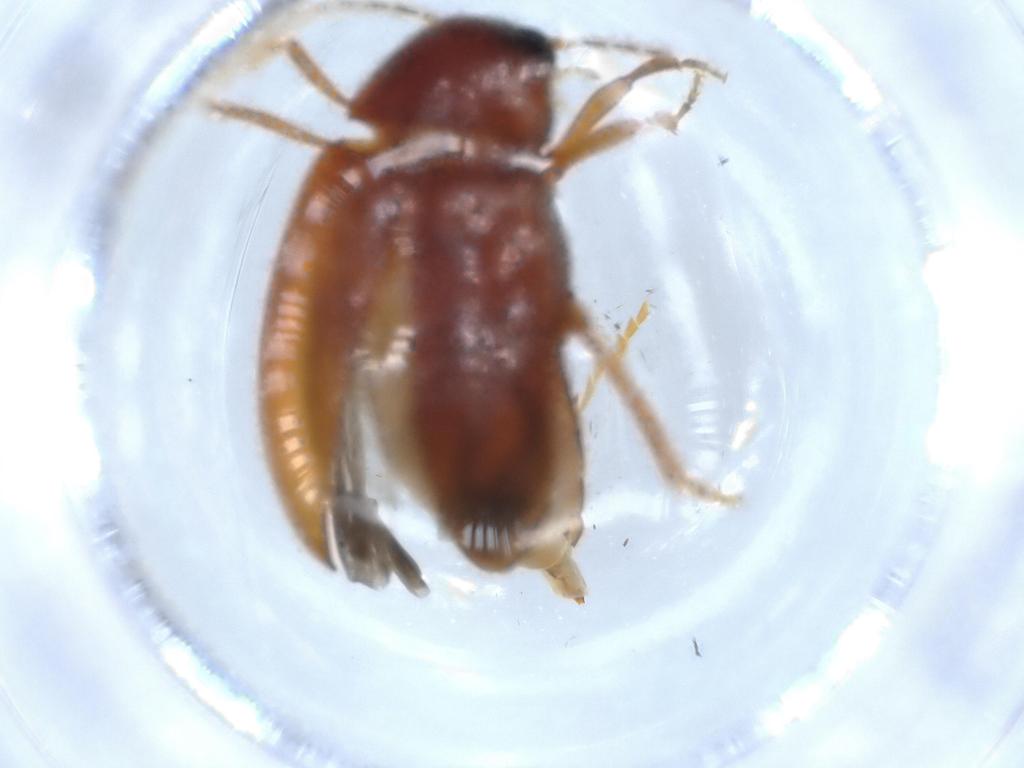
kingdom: Animalia
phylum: Arthropoda
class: Insecta
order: Coleoptera
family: Ptilodactylidae
